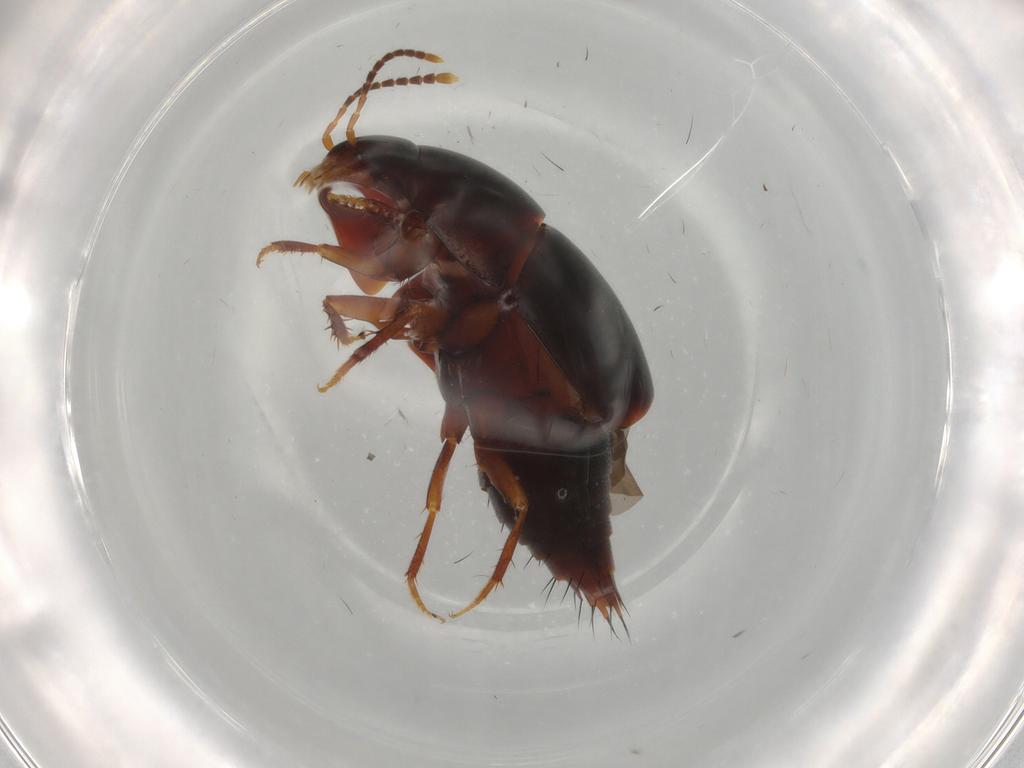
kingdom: Animalia
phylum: Arthropoda
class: Insecta
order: Coleoptera
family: Staphylinidae
